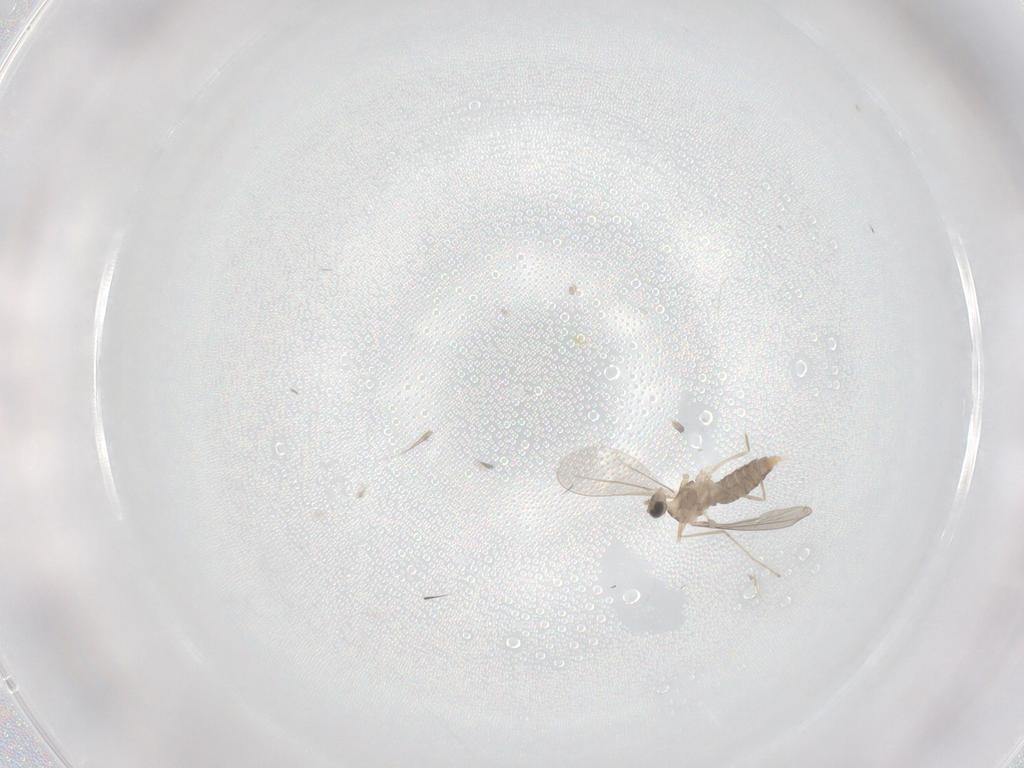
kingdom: Animalia
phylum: Arthropoda
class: Insecta
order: Diptera
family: Cecidomyiidae
